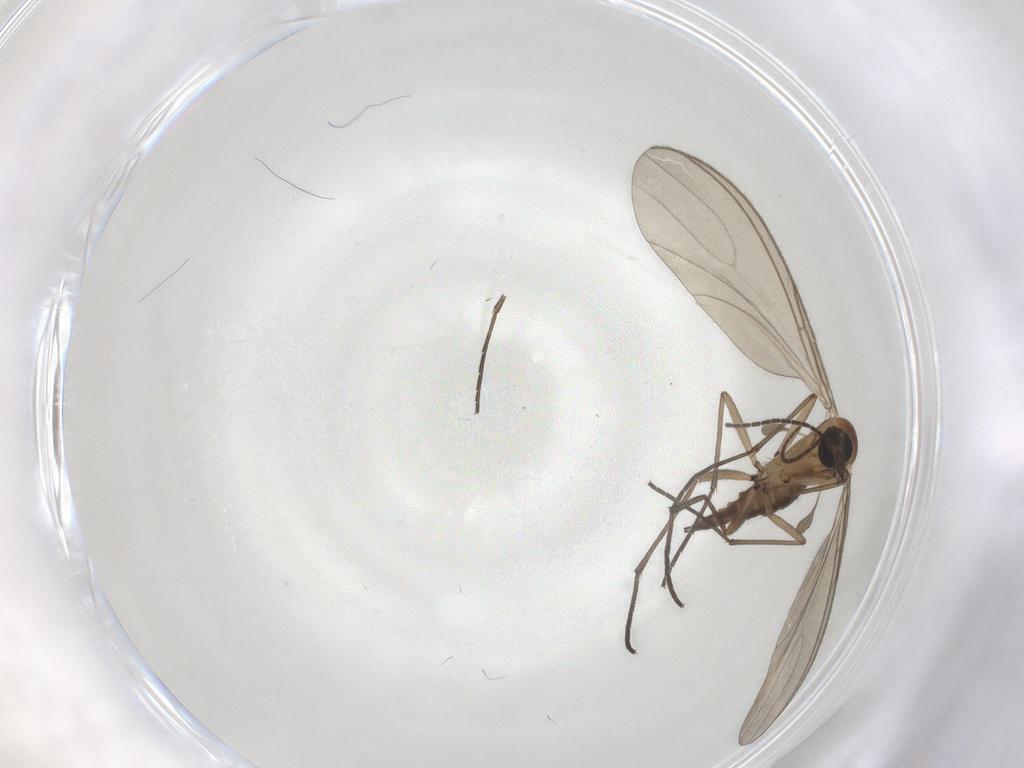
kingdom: Animalia
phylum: Arthropoda
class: Insecta
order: Diptera
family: Sciaridae
